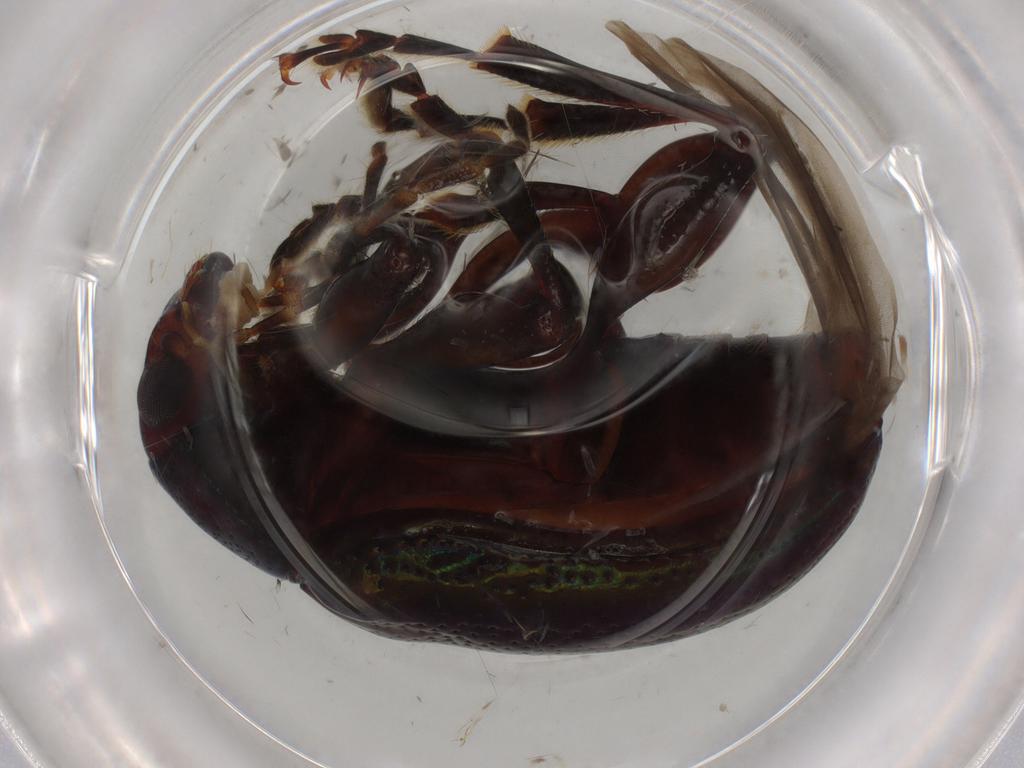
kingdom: Animalia
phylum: Arthropoda
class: Insecta
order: Coleoptera
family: Chrysomelidae
